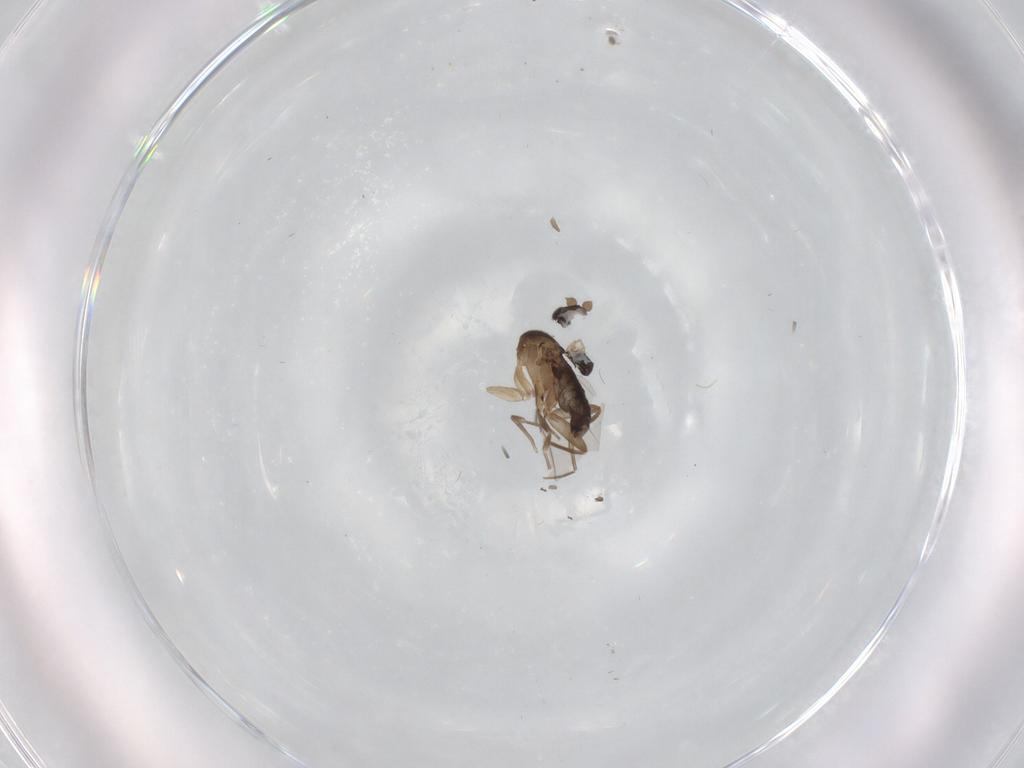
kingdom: Animalia
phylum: Arthropoda
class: Insecta
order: Diptera
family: Phoridae
